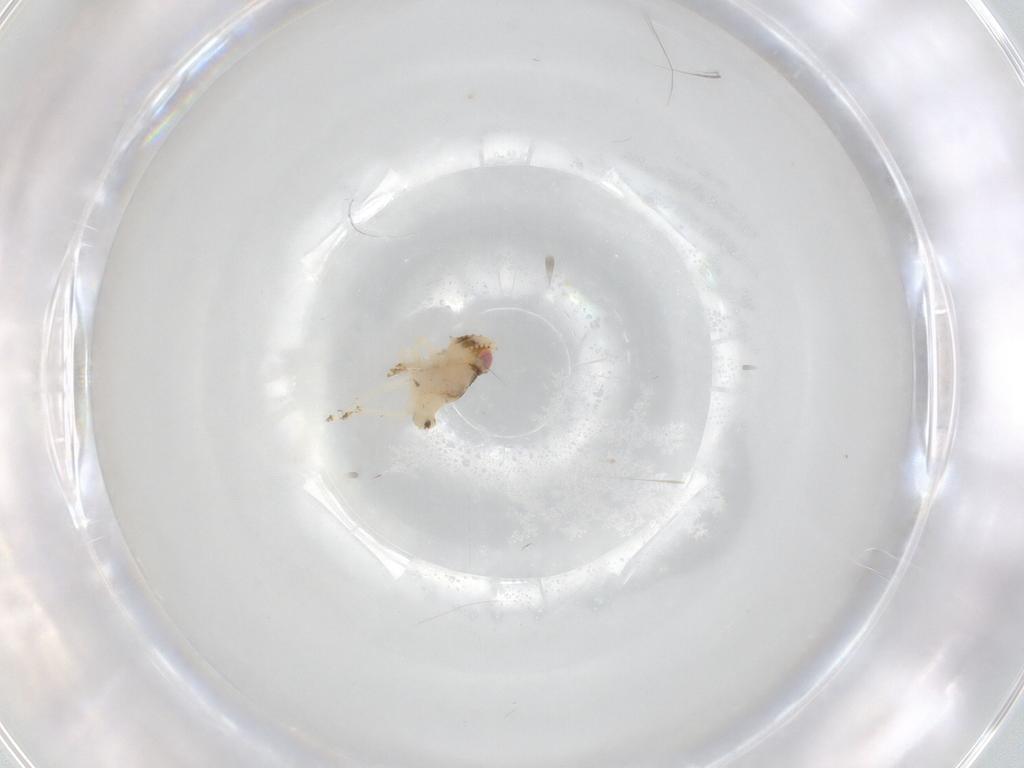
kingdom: Animalia
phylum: Arthropoda
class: Insecta
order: Hemiptera
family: Nogodinidae
